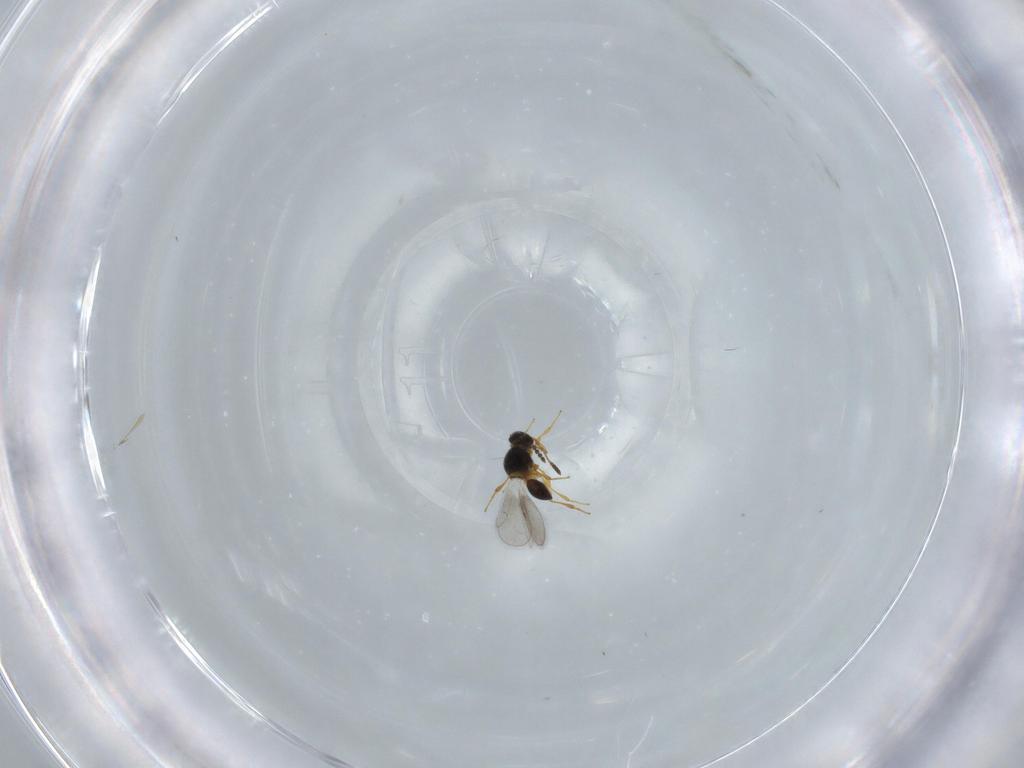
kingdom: Animalia
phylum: Arthropoda
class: Insecta
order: Hymenoptera
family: Platygastridae
